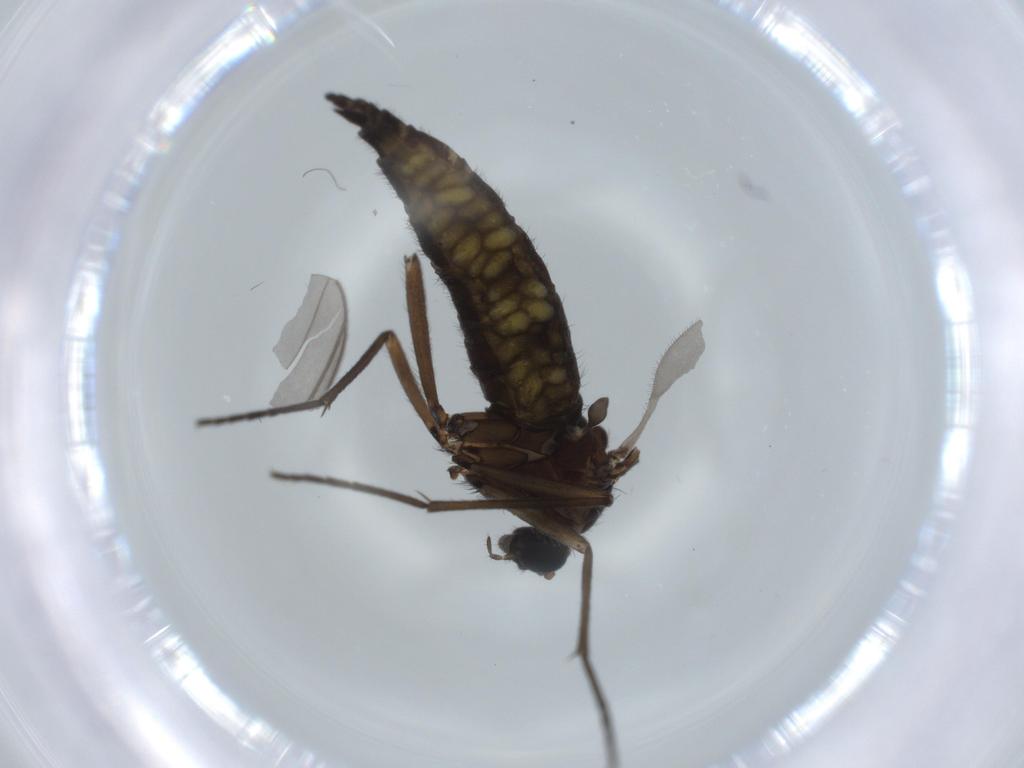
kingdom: Animalia
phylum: Arthropoda
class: Insecta
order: Diptera
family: Sciaridae
